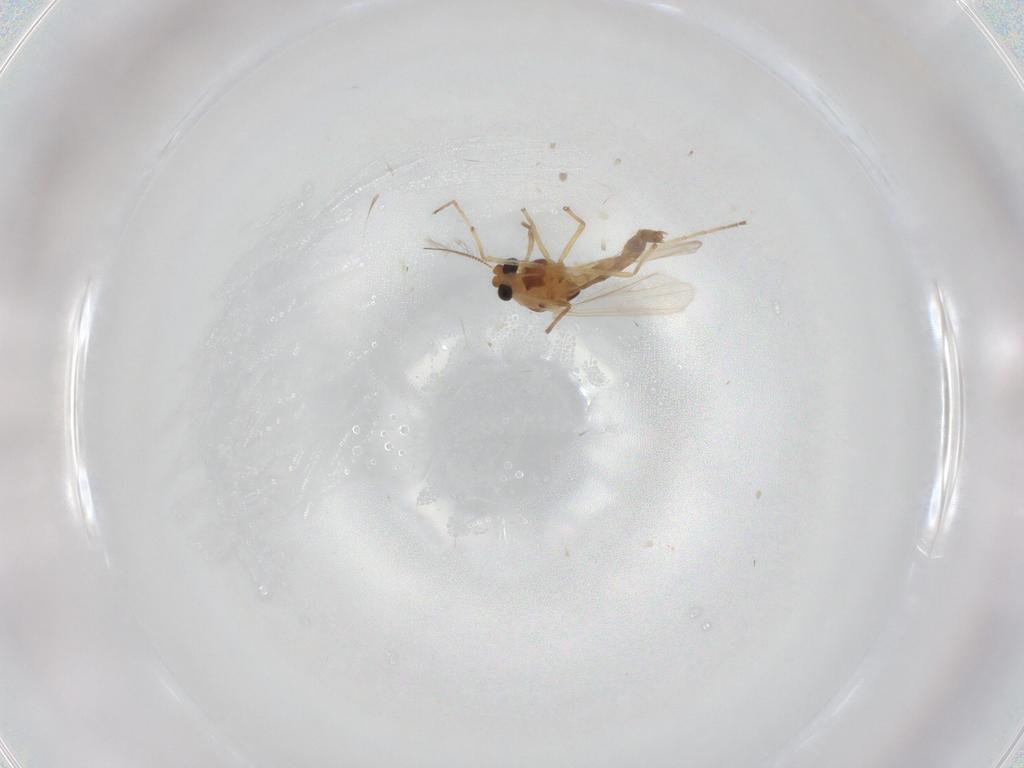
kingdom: Animalia
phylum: Arthropoda
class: Insecta
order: Diptera
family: Chironomidae
